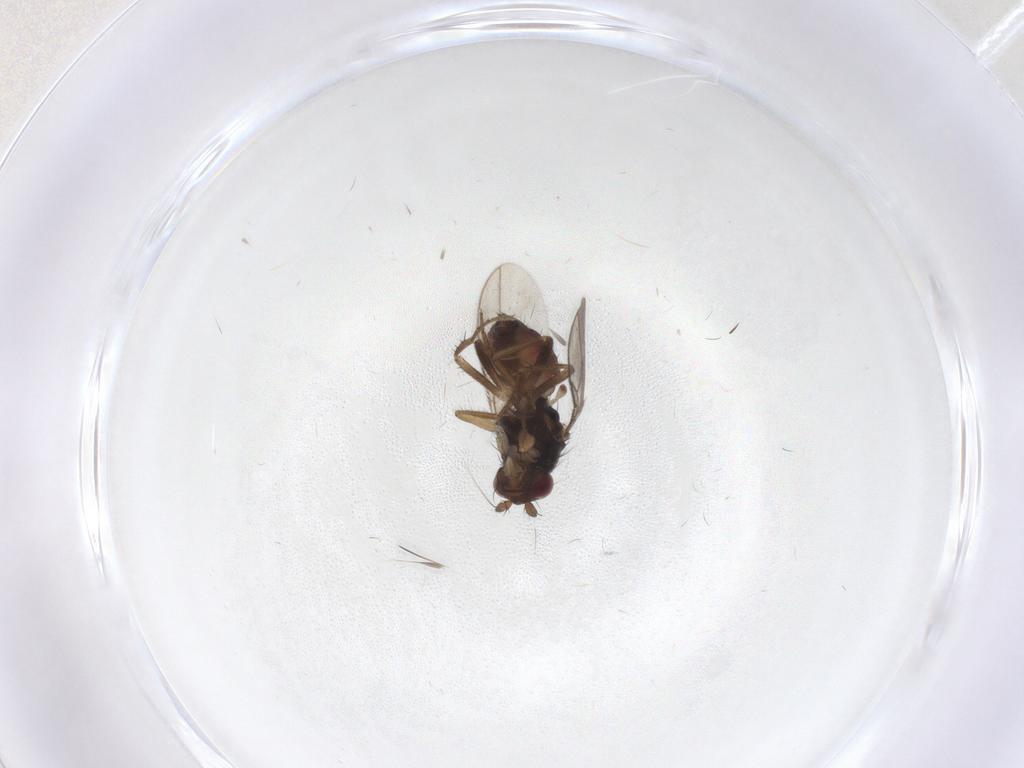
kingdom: Animalia
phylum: Arthropoda
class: Insecta
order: Diptera
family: Sphaeroceridae
